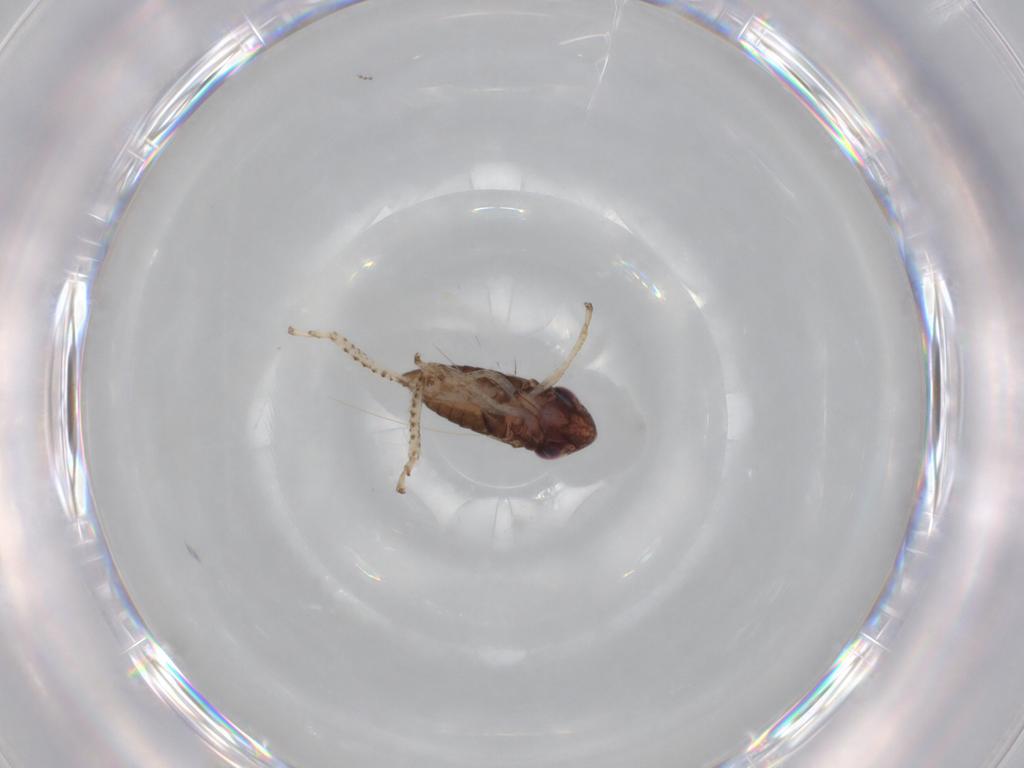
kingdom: Animalia
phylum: Arthropoda
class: Insecta
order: Hemiptera
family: Aphididae
